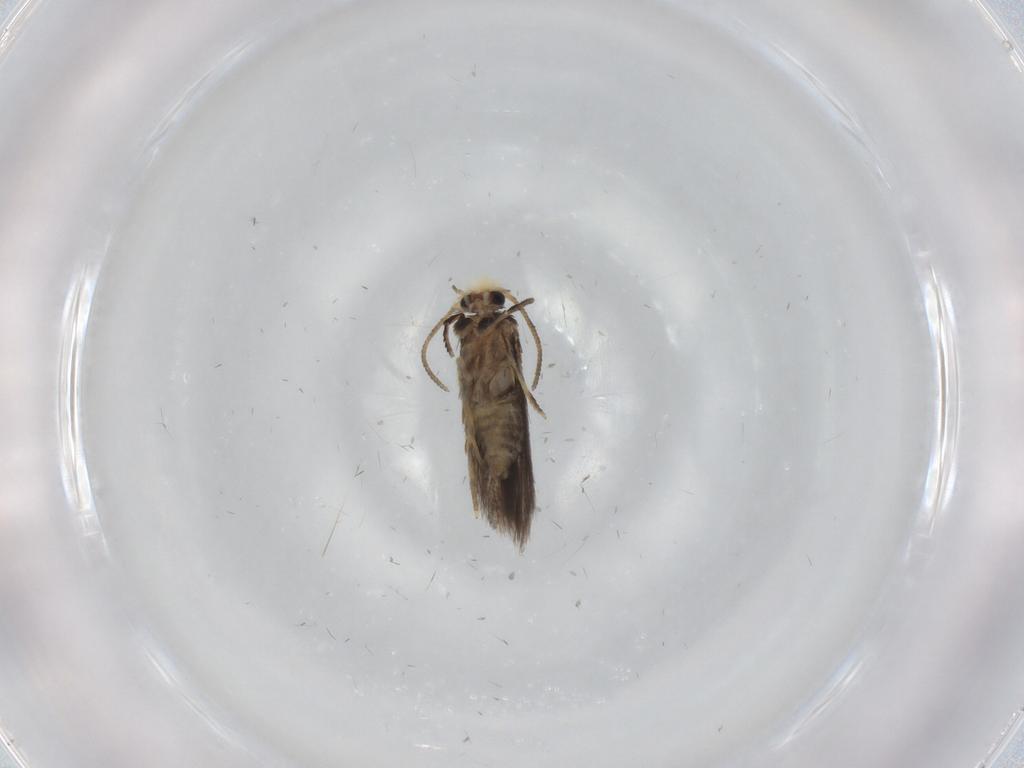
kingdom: Animalia
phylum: Arthropoda
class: Insecta
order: Lepidoptera
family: Nepticulidae
